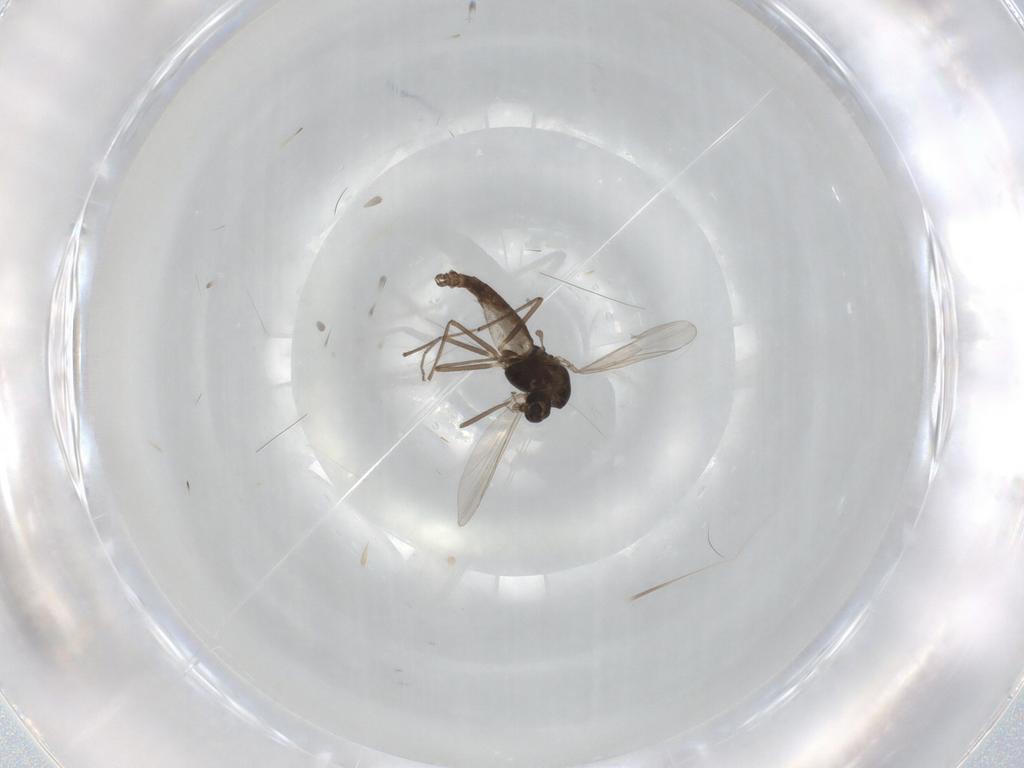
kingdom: Animalia
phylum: Arthropoda
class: Insecta
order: Diptera
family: Chironomidae
